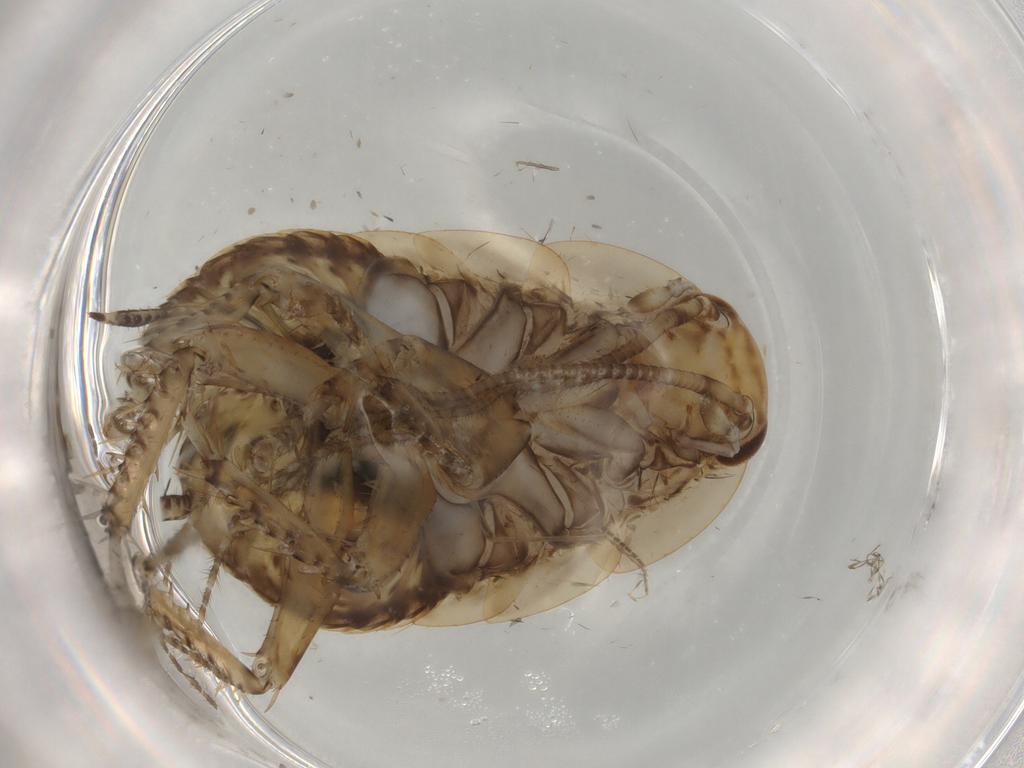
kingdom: Animalia
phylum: Arthropoda
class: Insecta
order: Blattodea
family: Ectobiidae
